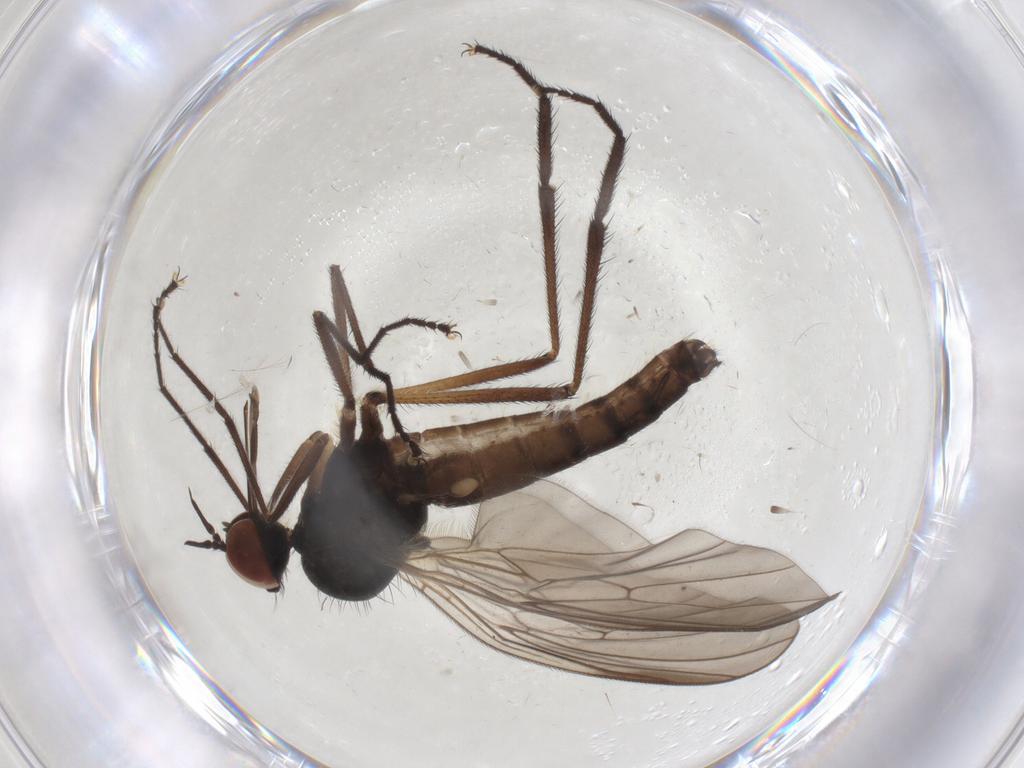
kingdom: Animalia
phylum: Arthropoda
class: Insecta
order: Diptera
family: Empididae
